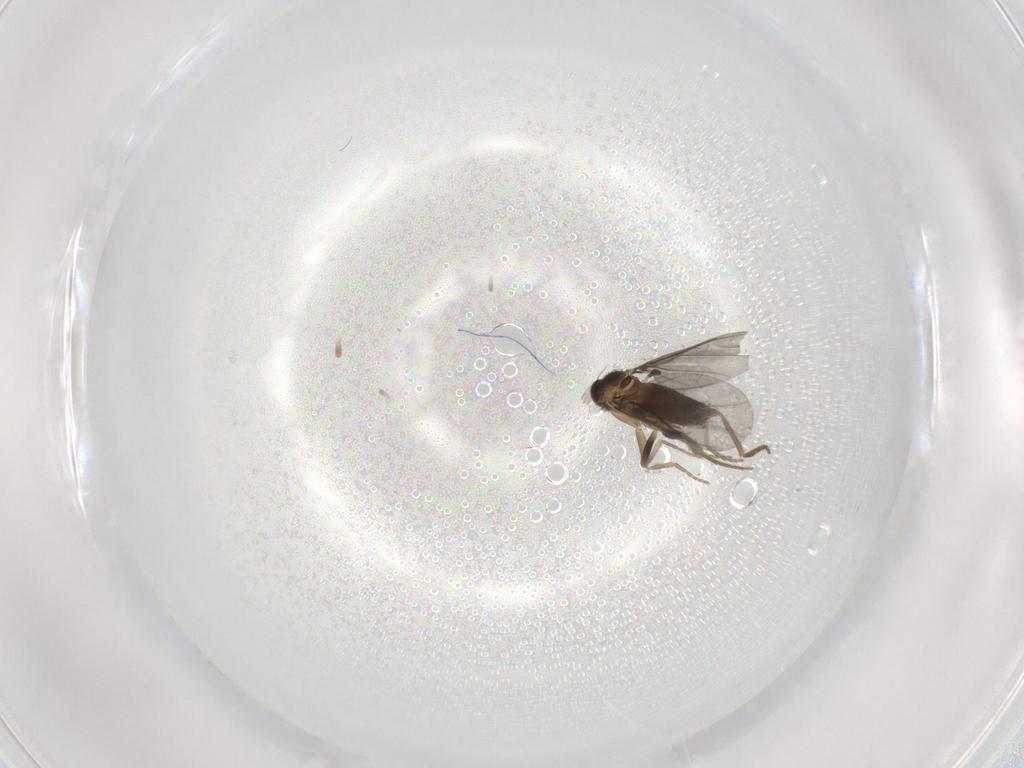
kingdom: Animalia
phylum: Arthropoda
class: Insecta
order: Diptera
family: Phoridae
